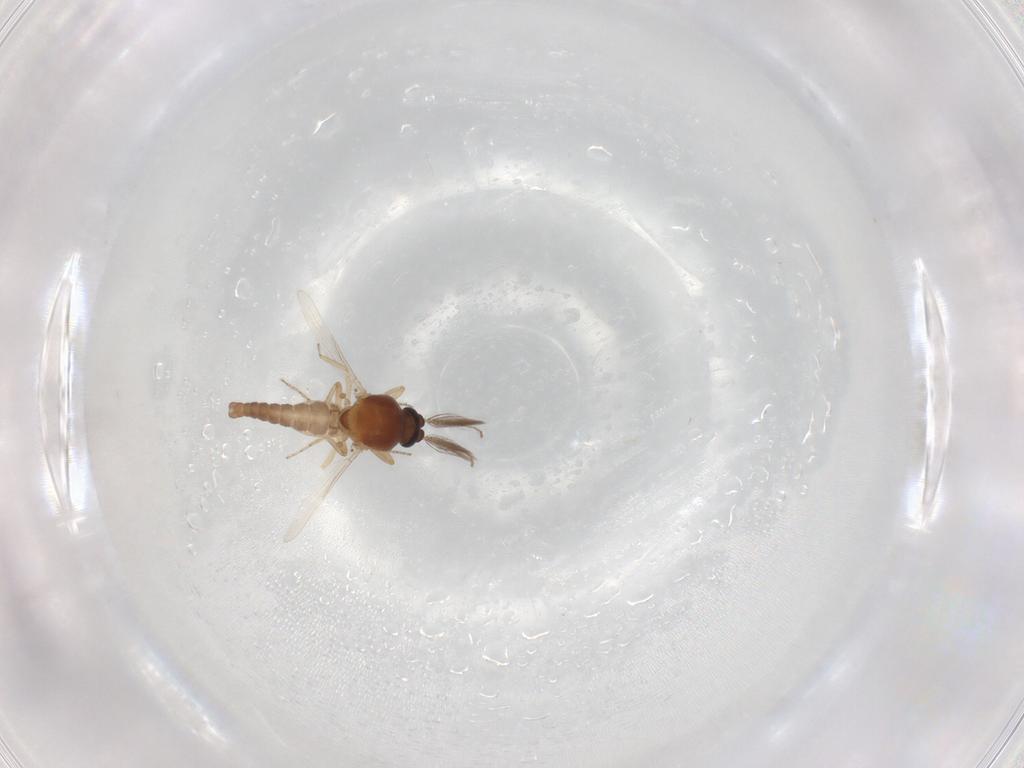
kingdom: Animalia
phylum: Arthropoda
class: Insecta
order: Diptera
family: Ceratopogonidae
